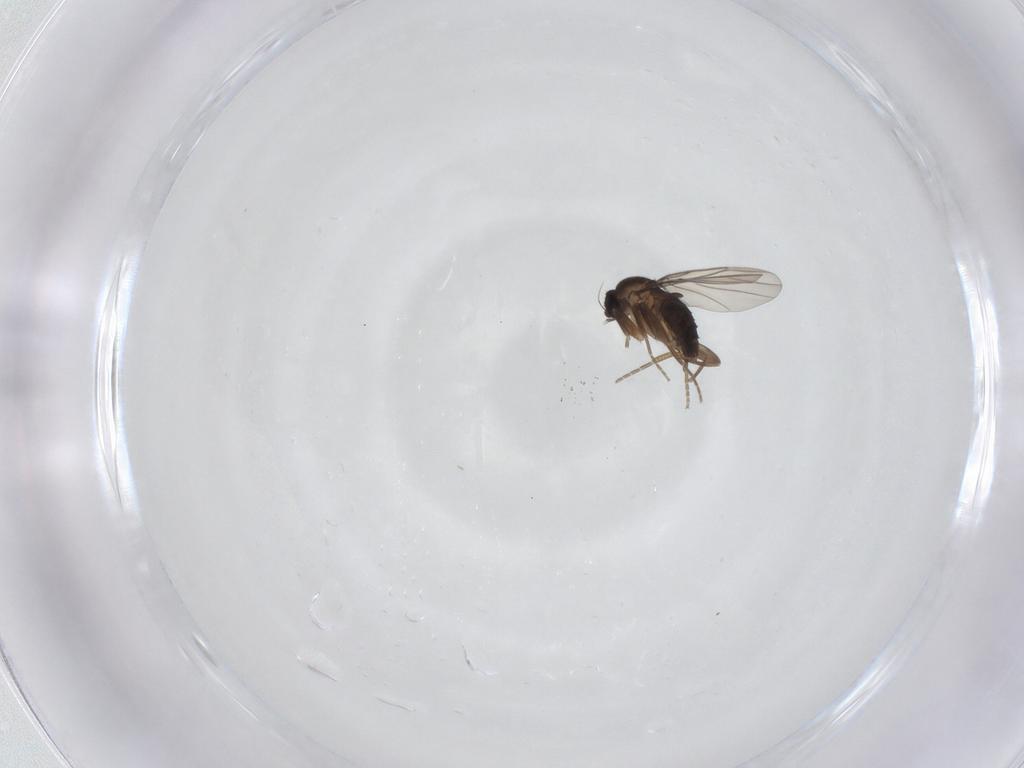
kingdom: Animalia
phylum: Arthropoda
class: Insecta
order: Diptera
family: Phoridae
